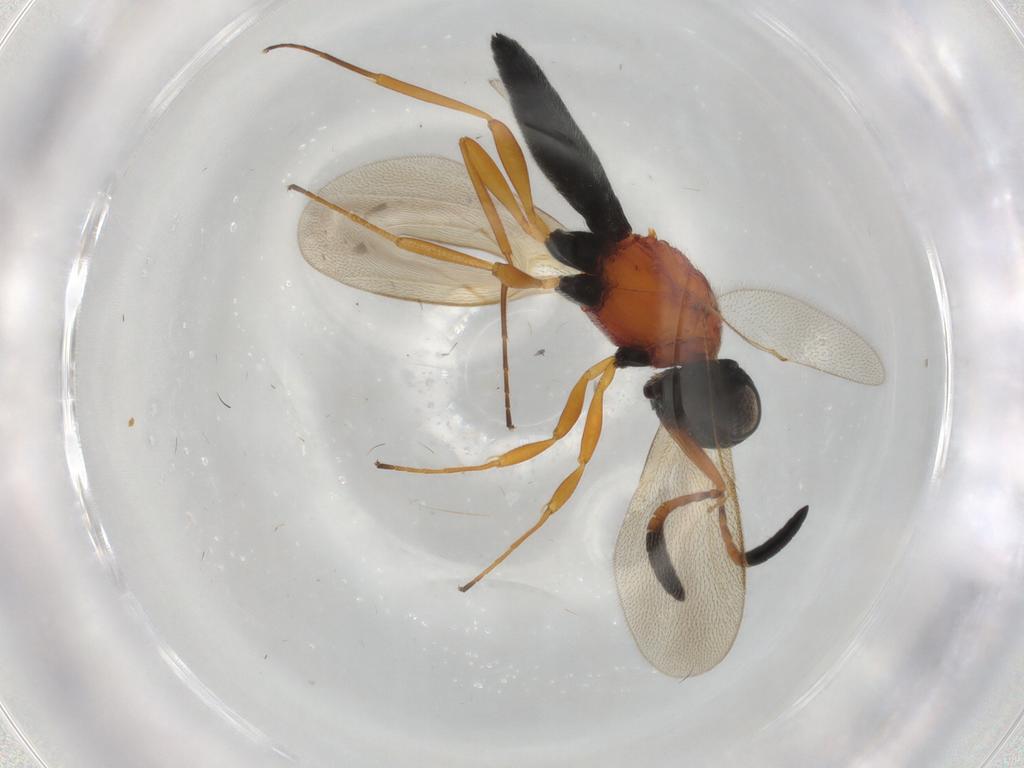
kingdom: Animalia
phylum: Arthropoda
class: Insecta
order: Hymenoptera
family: Scelionidae
